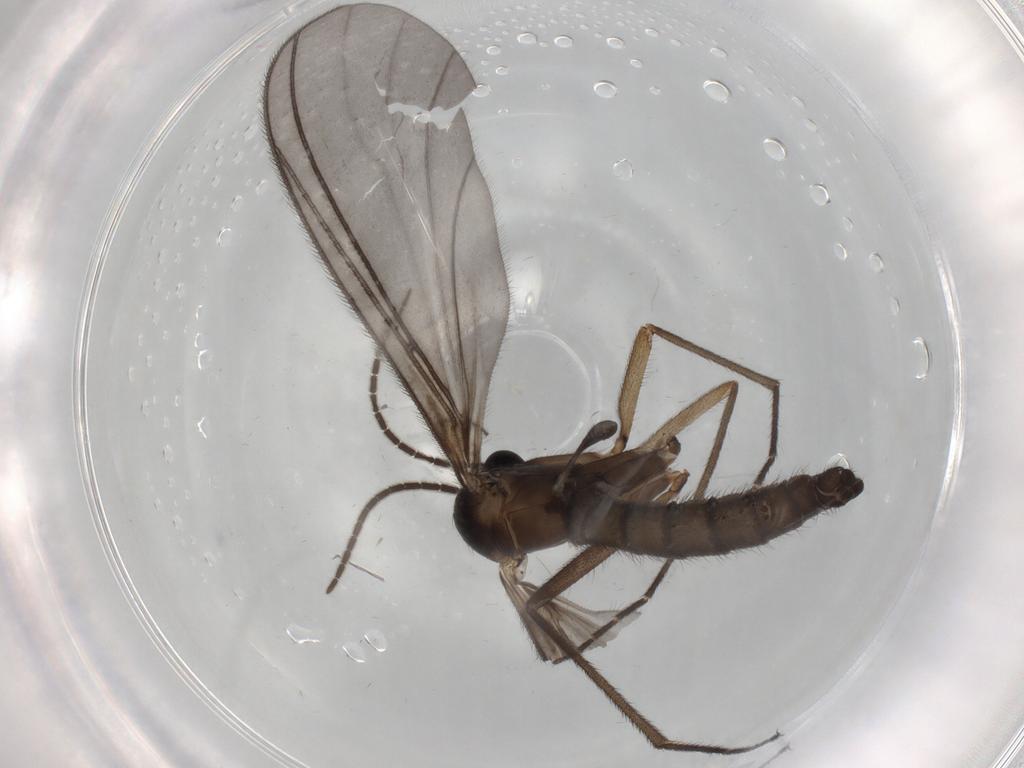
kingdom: Animalia
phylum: Arthropoda
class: Insecta
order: Diptera
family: Sciaridae
